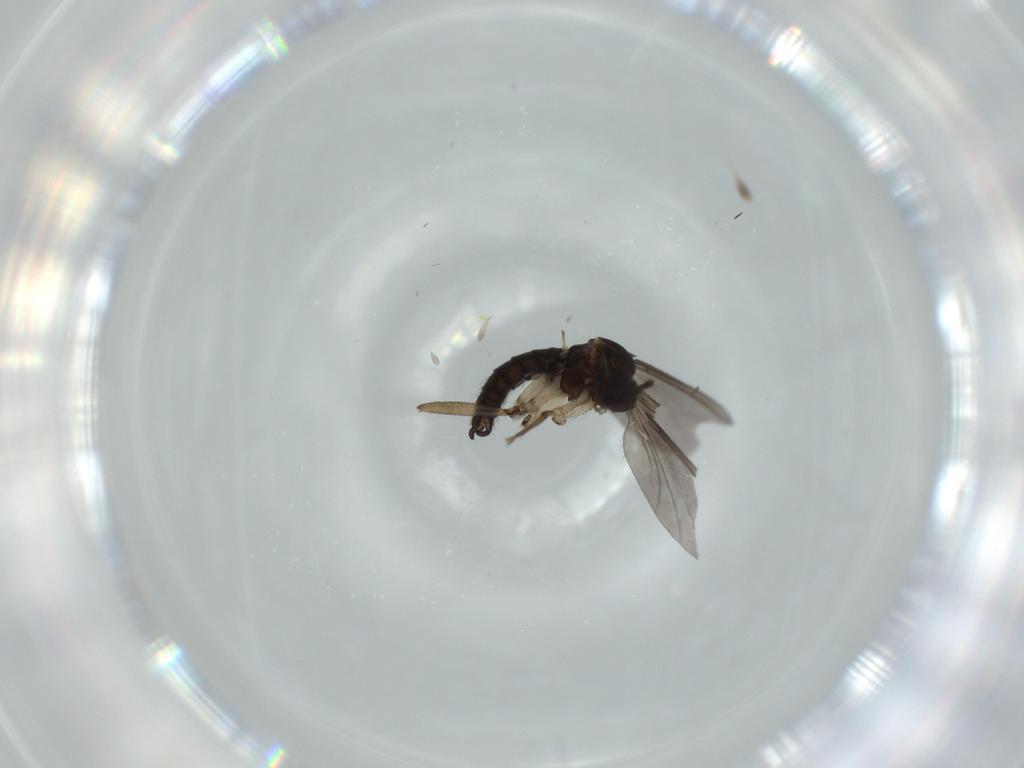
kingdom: Animalia
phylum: Arthropoda
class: Insecta
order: Diptera
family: Sciaridae
